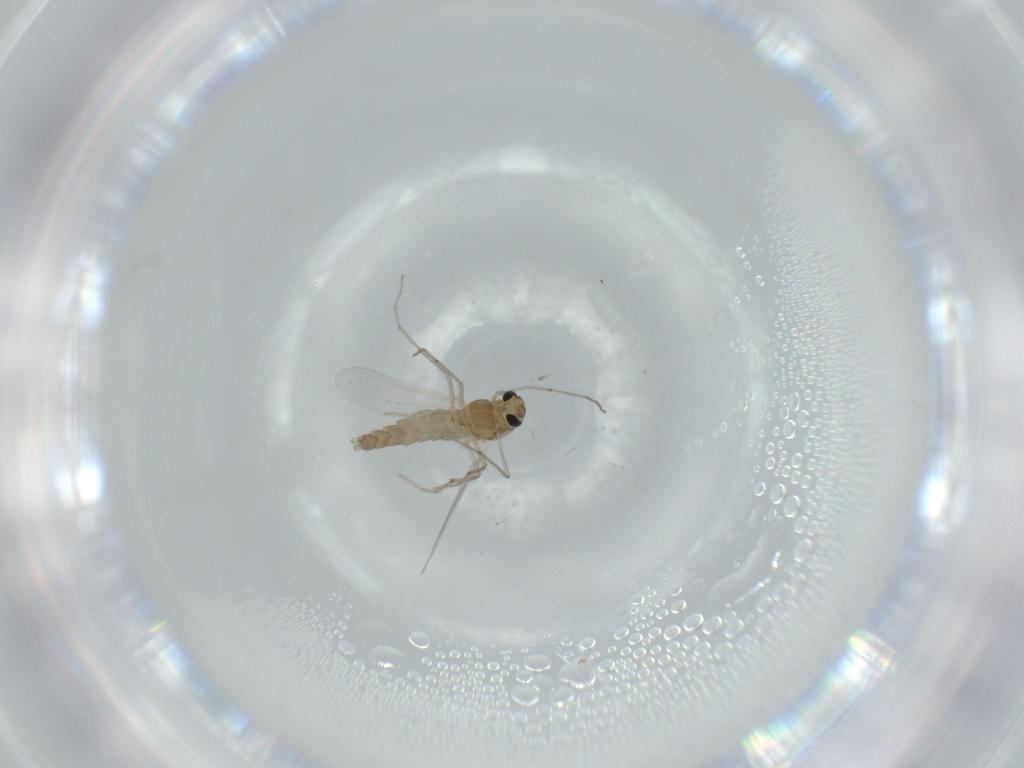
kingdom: Animalia
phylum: Arthropoda
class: Insecta
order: Diptera
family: Chironomidae
